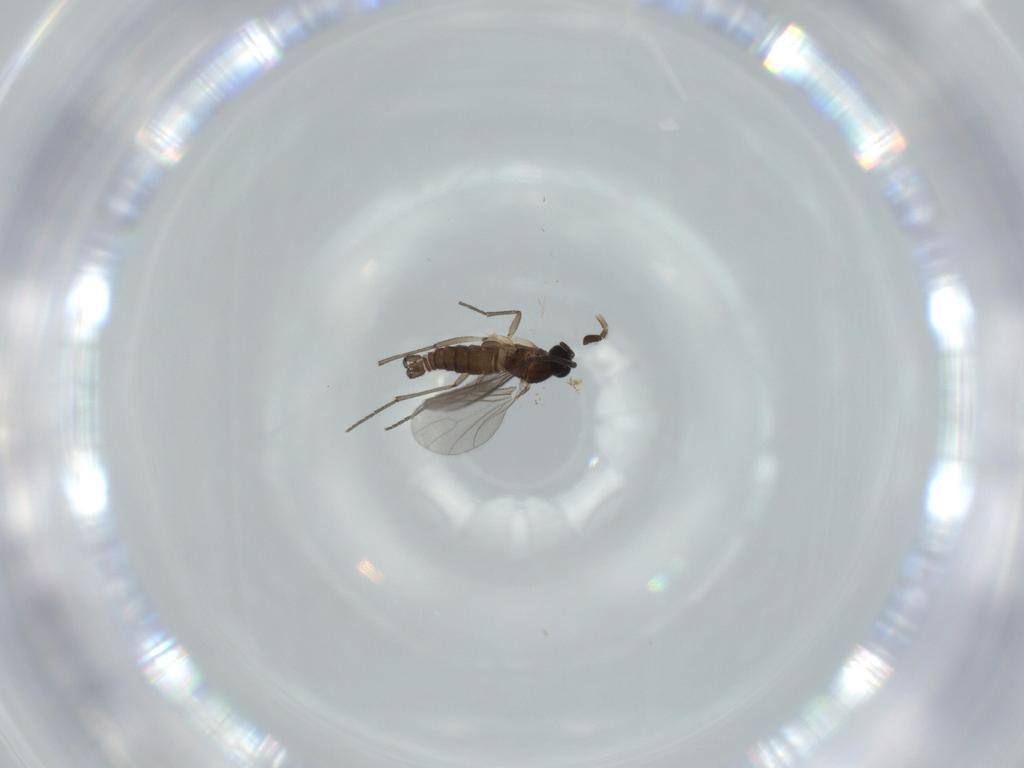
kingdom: Animalia
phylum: Arthropoda
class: Insecta
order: Diptera
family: Sciaridae
